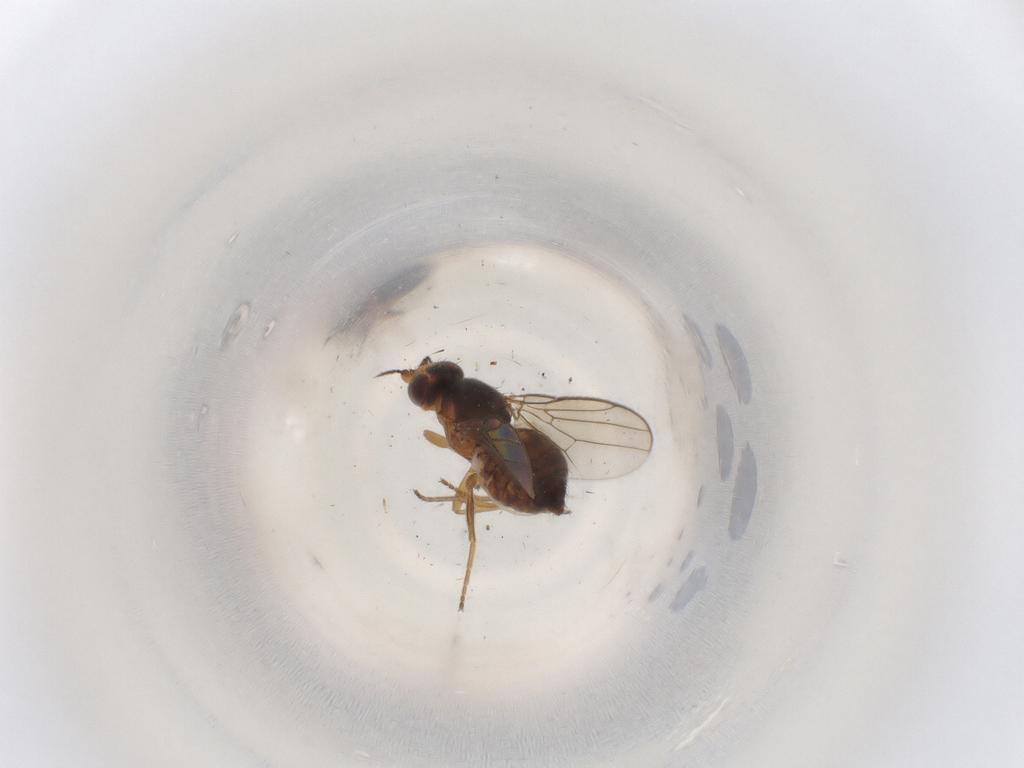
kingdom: Animalia
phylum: Arthropoda
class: Insecta
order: Diptera
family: Chloropidae
